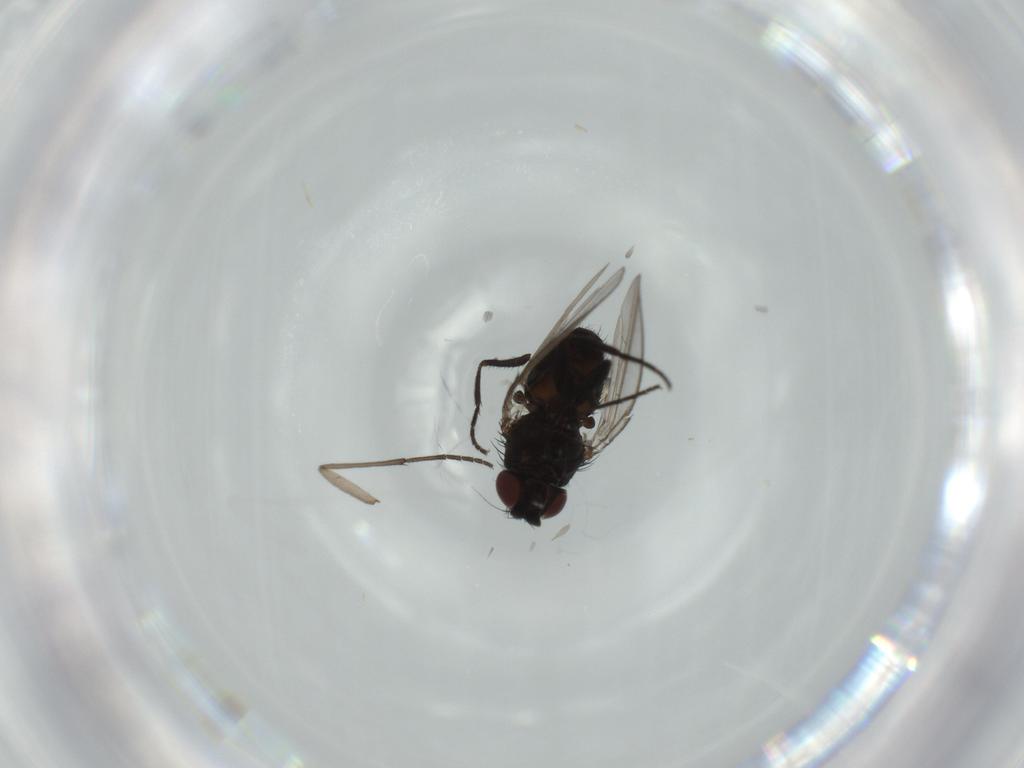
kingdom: Animalia
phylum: Arthropoda
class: Insecta
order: Diptera
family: Milichiidae
